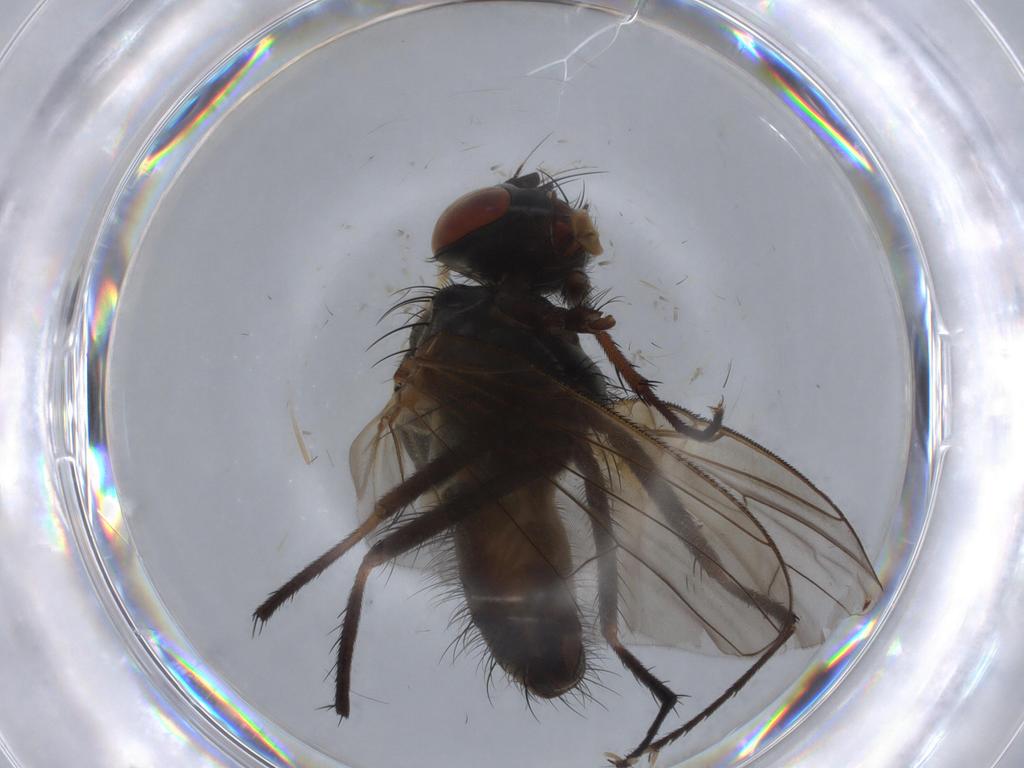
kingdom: Animalia
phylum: Arthropoda
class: Insecta
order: Diptera
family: Anthomyiidae
